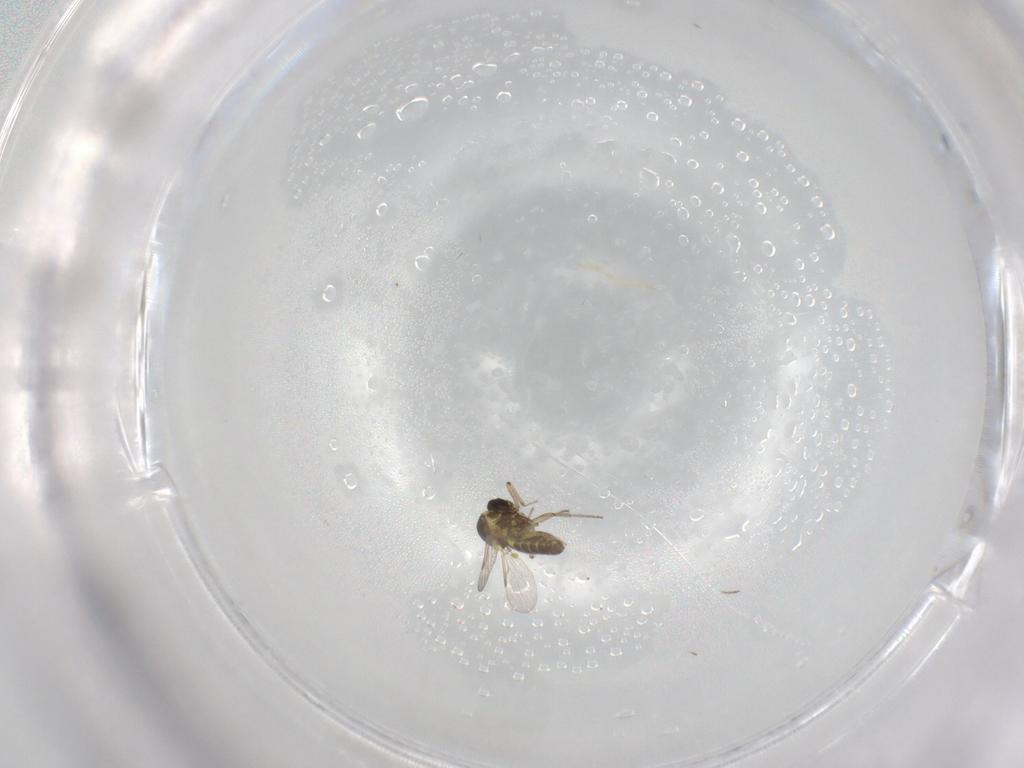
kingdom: Animalia
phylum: Arthropoda
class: Insecta
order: Diptera
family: Ceratopogonidae
